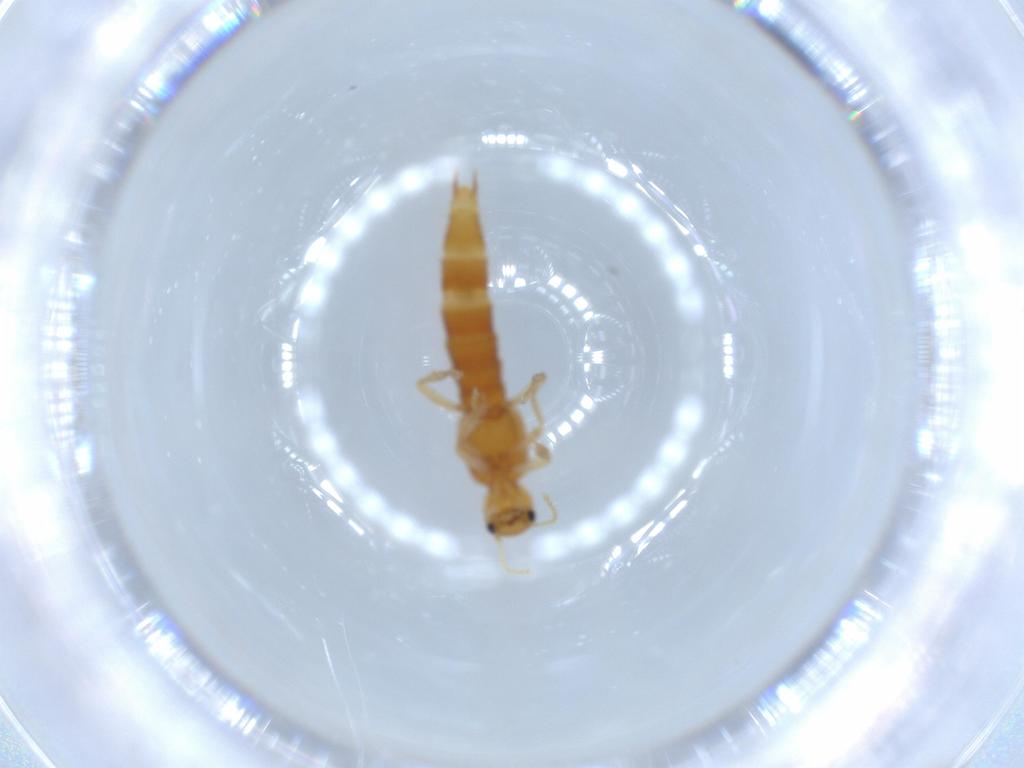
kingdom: Animalia
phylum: Arthropoda
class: Insecta
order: Coleoptera
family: Staphylinidae
